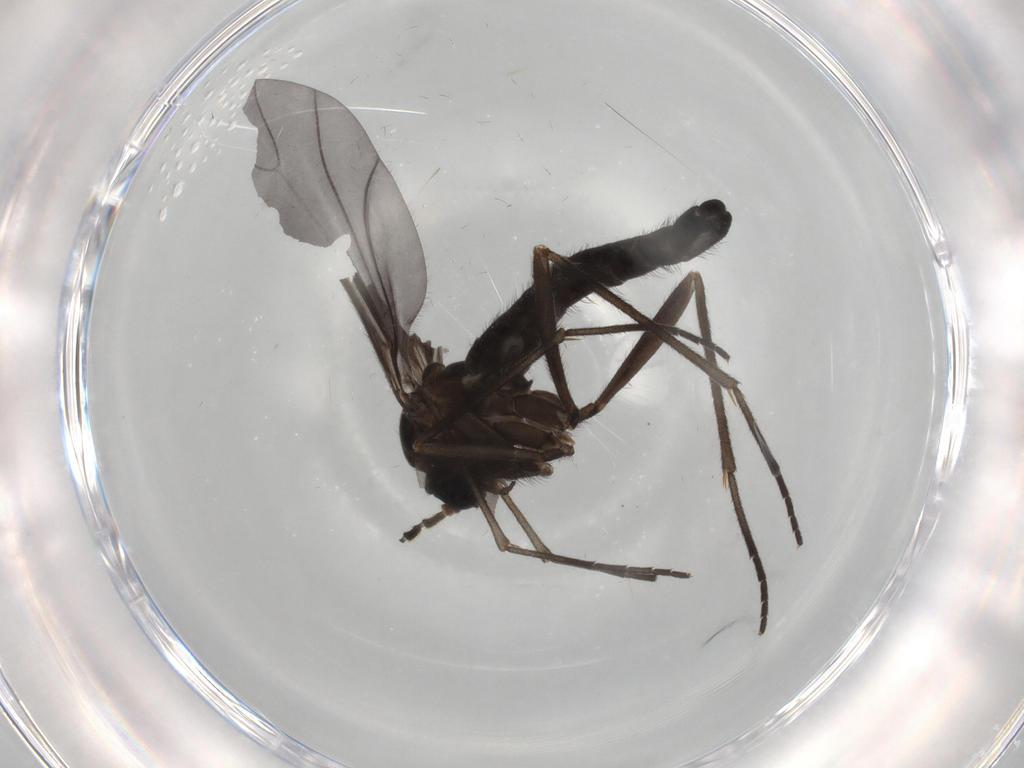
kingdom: Animalia
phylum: Arthropoda
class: Insecta
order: Diptera
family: Cecidomyiidae
